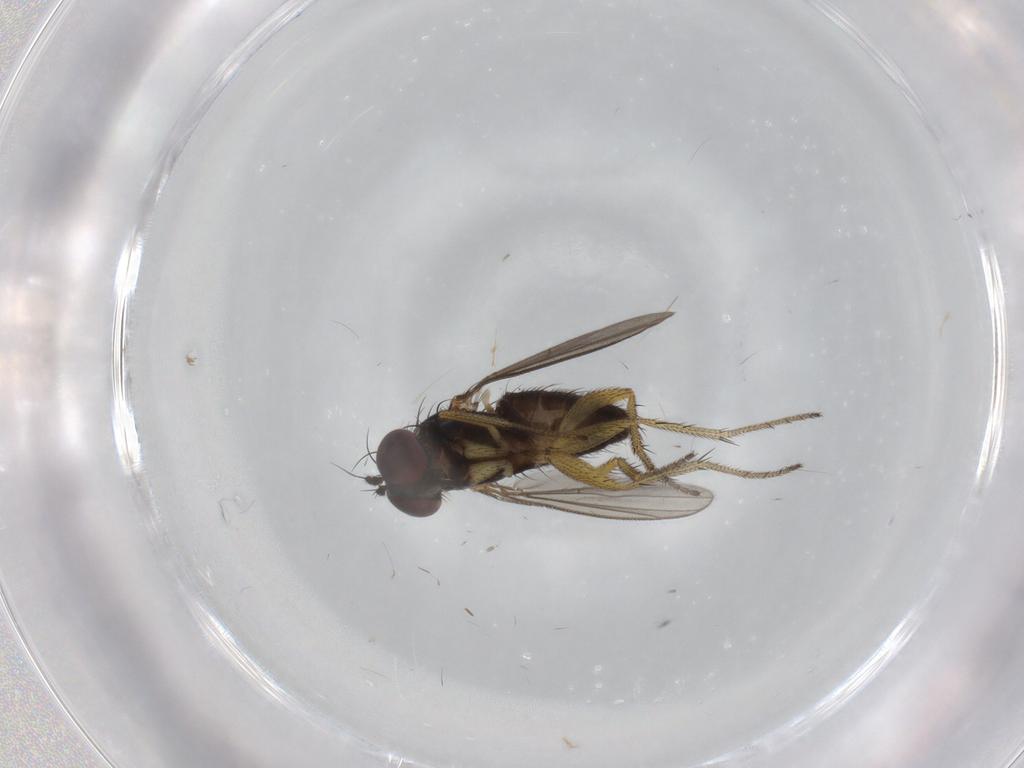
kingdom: Animalia
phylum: Arthropoda
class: Insecta
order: Diptera
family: Dolichopodidae
